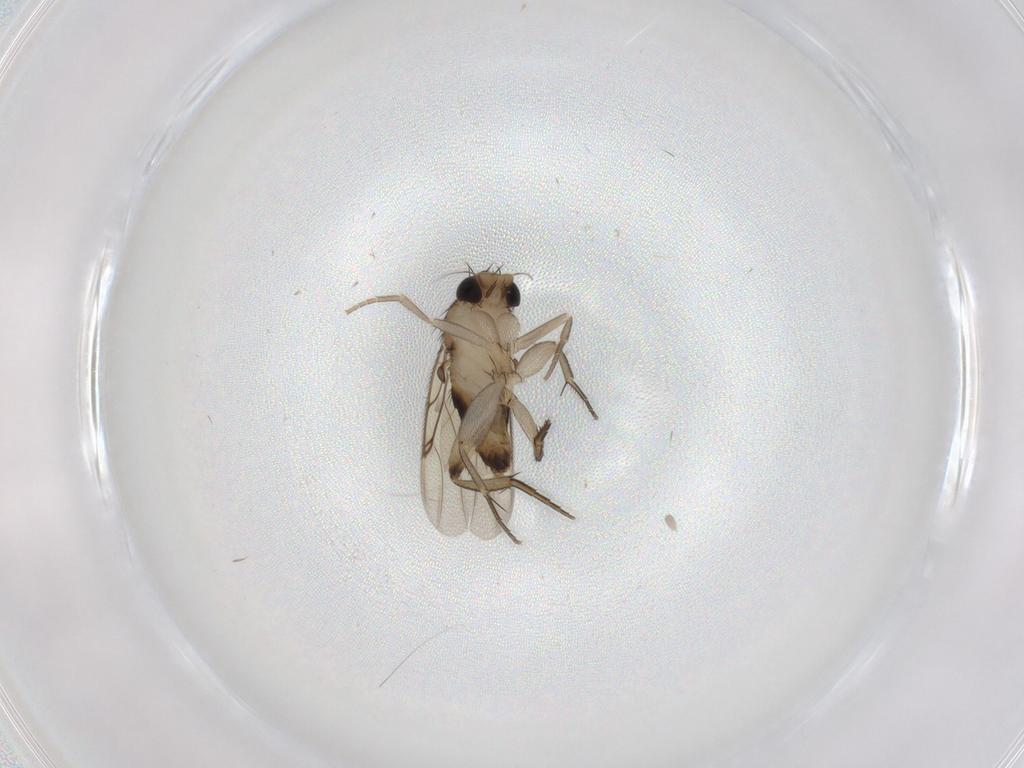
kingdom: Animalia
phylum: Arthropoda
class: Insecta
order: Diptera
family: Phoridae
